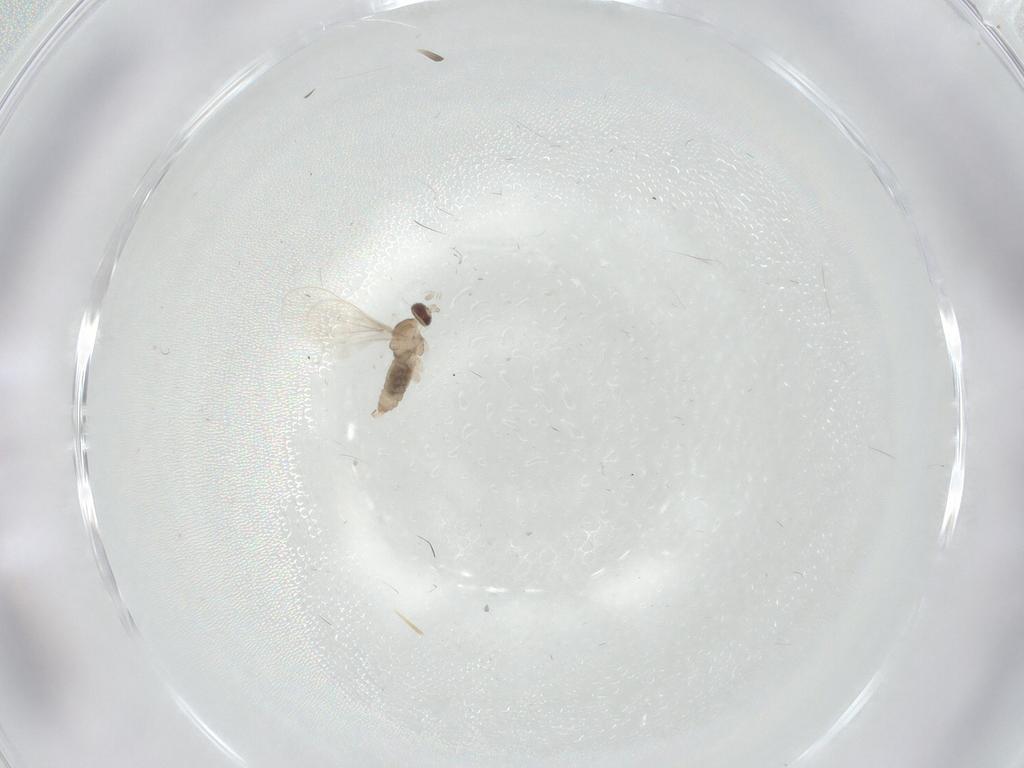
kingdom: Animalia
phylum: Arthropoda
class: Insecta
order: Diptera
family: Cecidomyiidae
